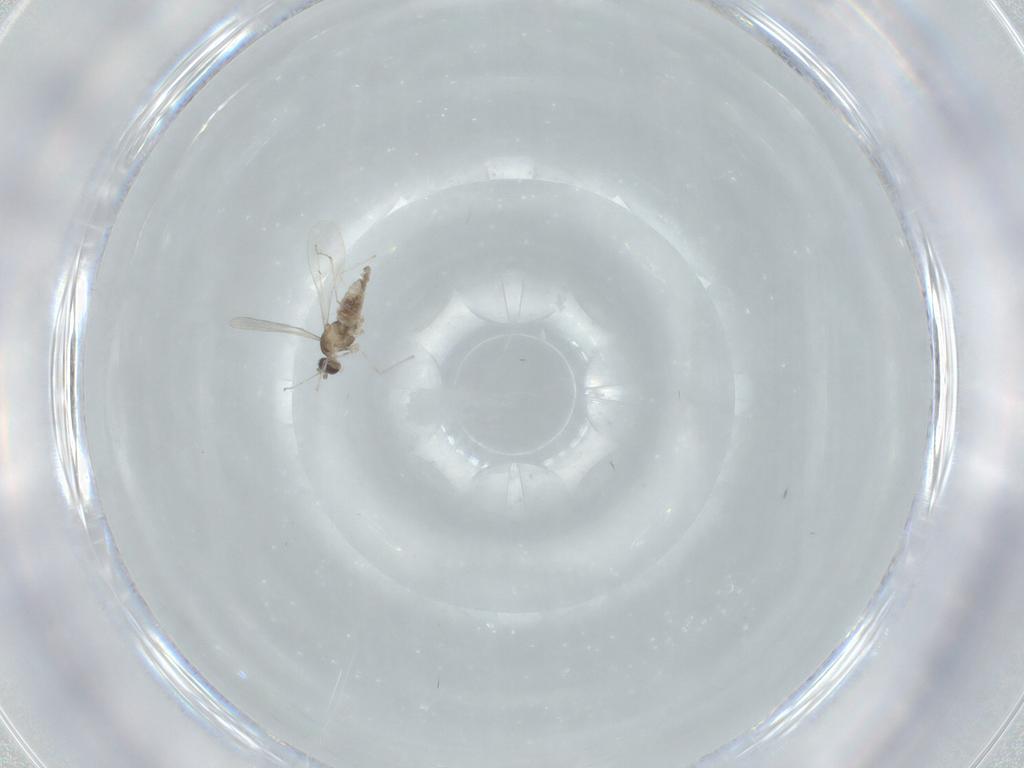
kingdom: Animalia
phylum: Arthropoda
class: Insecta
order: Diptera
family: Cecidomyiidae
